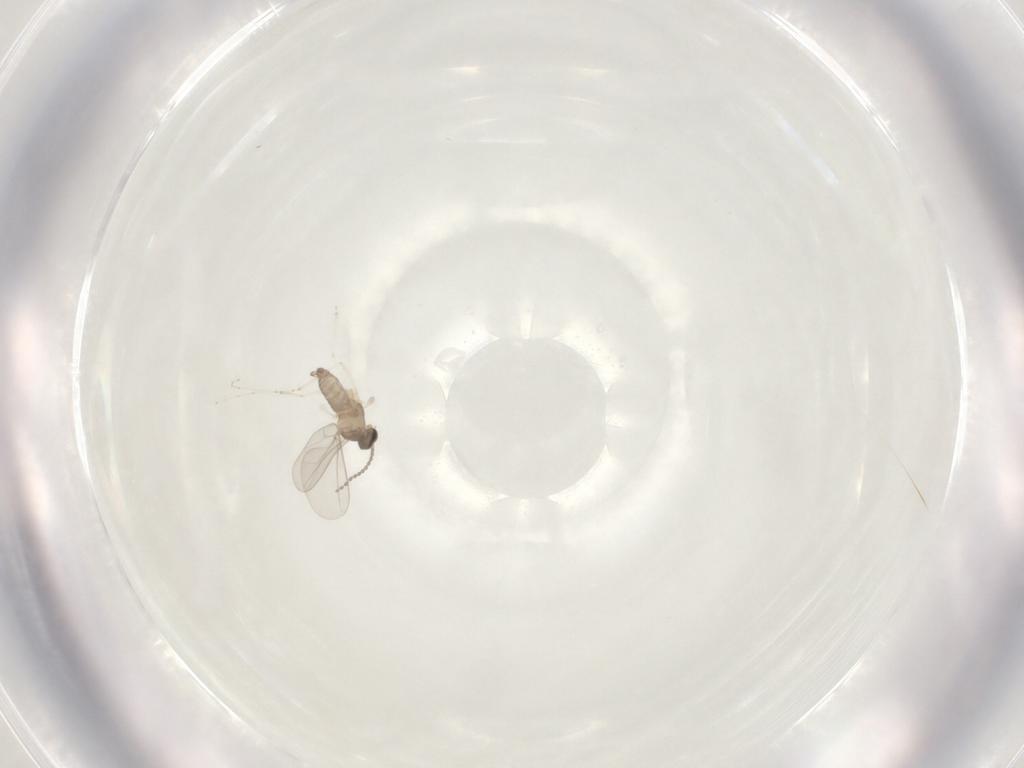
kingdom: Animalia
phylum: Arthropoda
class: Insecta
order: Diptera
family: Cecidomyiidae
